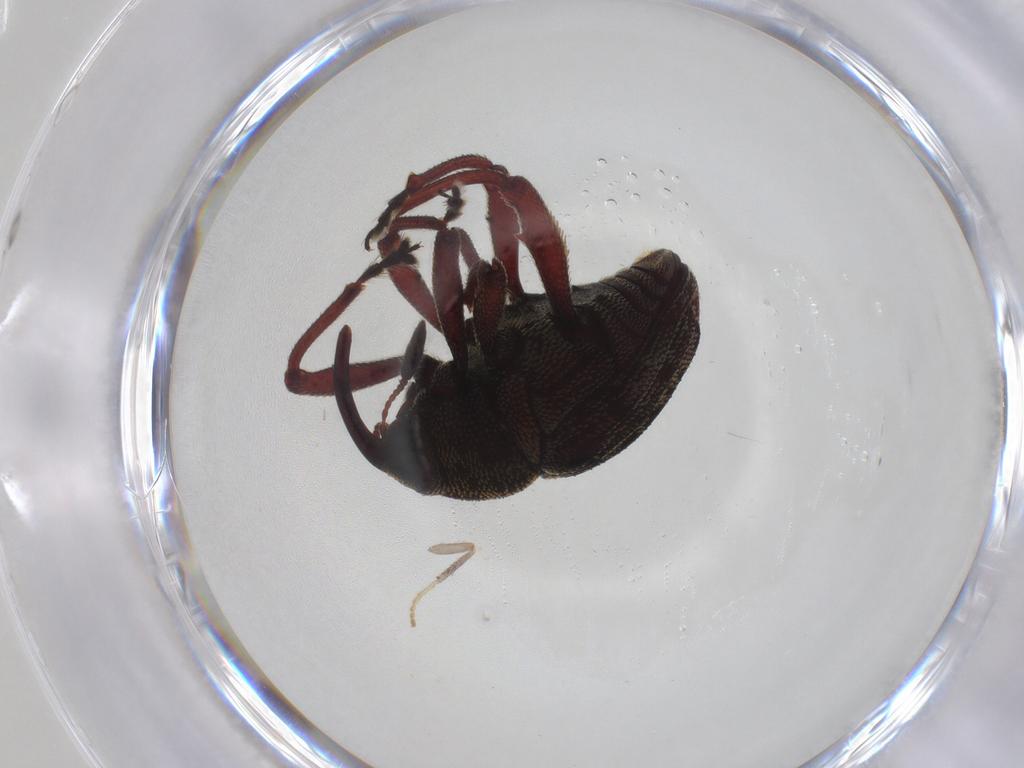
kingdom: Animalia
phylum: Arthropoda
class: Insecta
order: Coleoptera
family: Curculionidae
